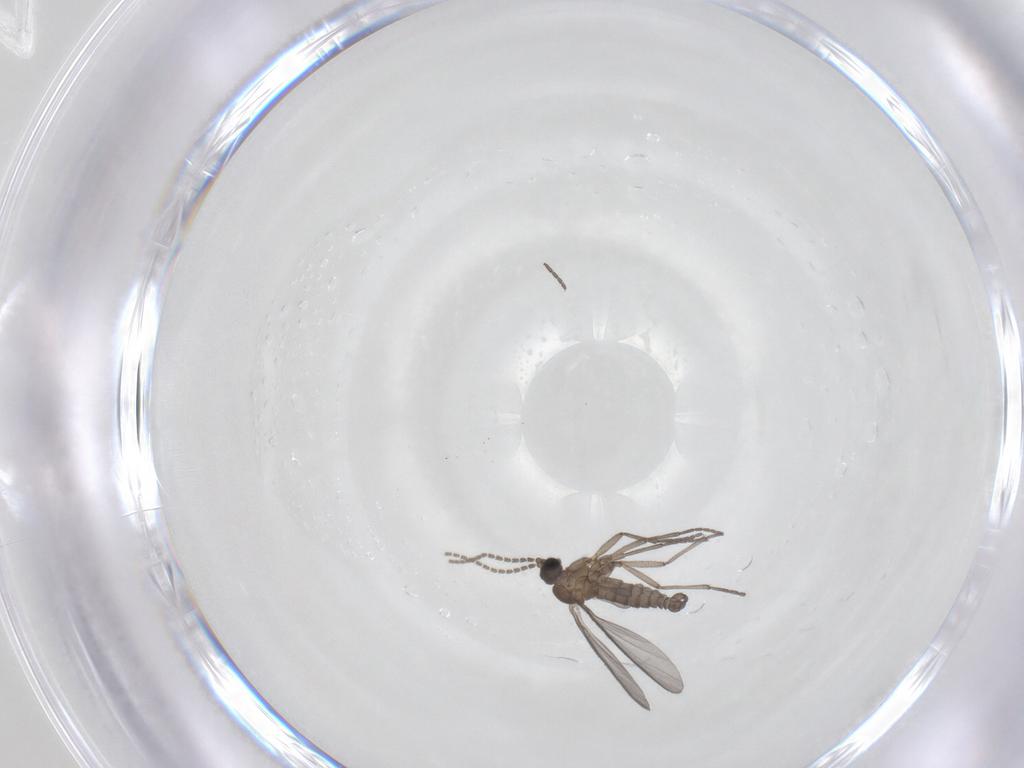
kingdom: Animalia
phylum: Arthropoda
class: Insecta
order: Diptera
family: Sciaridae
